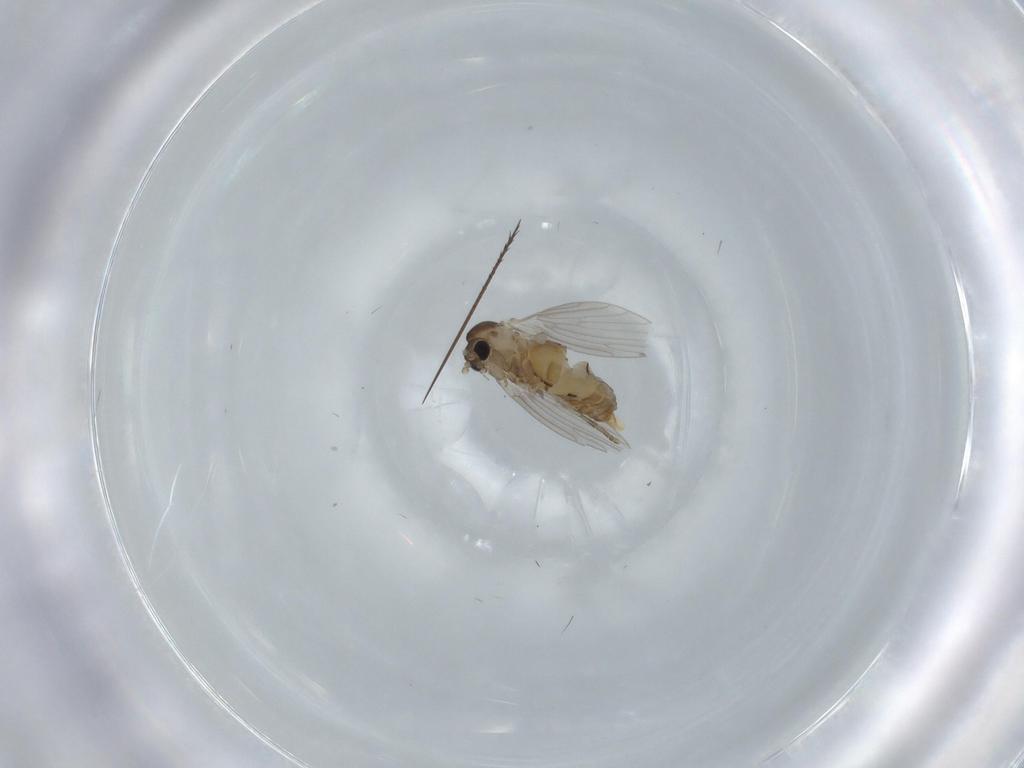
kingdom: Animalia
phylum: Arthropoda
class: Insecta
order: Diptera
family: Psychodidae
